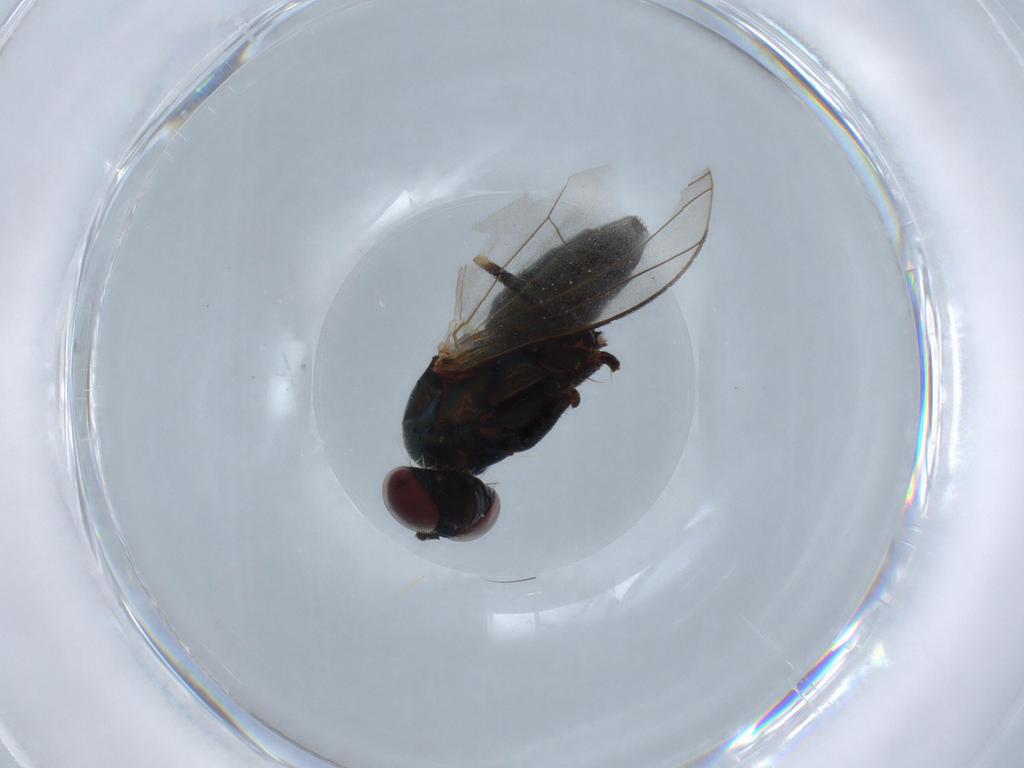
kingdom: Animalia
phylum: Arthropoda
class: Insecta
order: Diptera
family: Dolichopodidae
